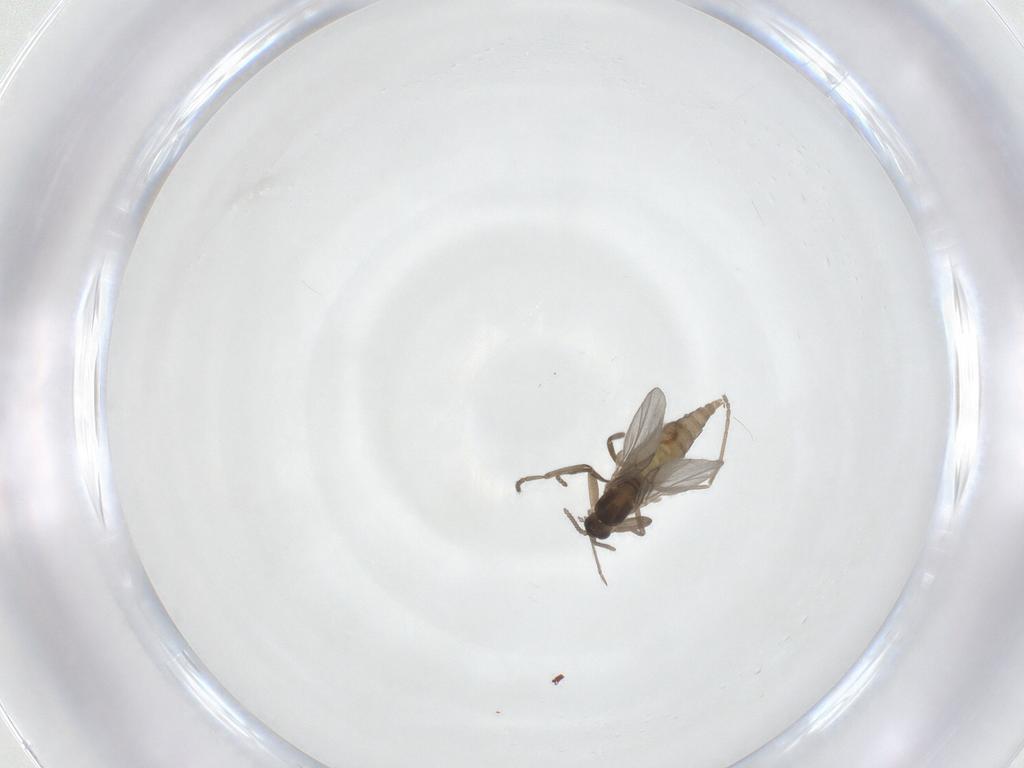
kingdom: Animalia
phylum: Arthropoda
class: Insecta
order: Diptera
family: Cecidomyiidae
